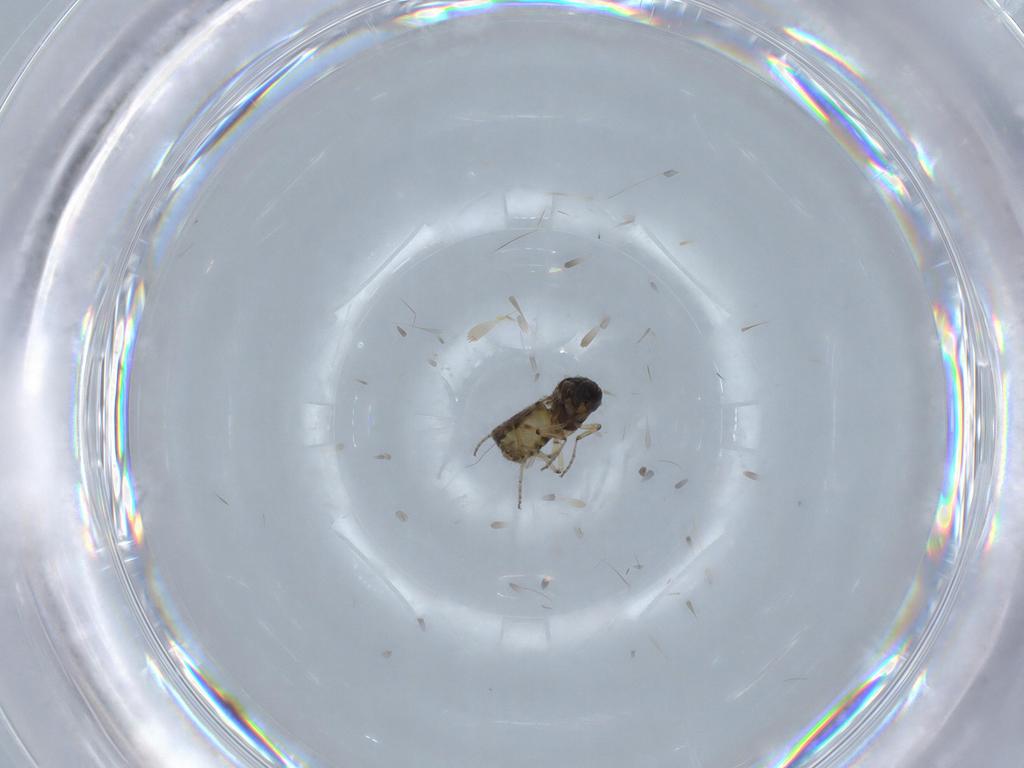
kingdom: Animalia
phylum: Arthropoda
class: Insecta
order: Diptera
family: Ceratopogonidae
